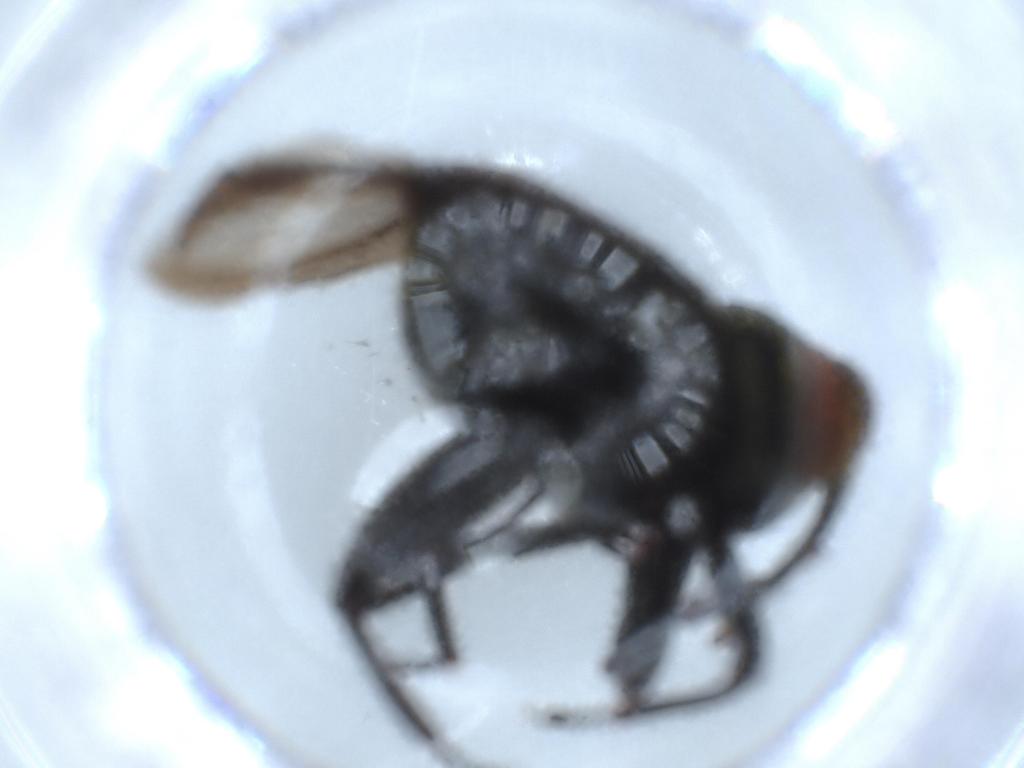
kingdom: Animalia
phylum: Arthropoda
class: Insecta
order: Coleoptera
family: Curculionidae
